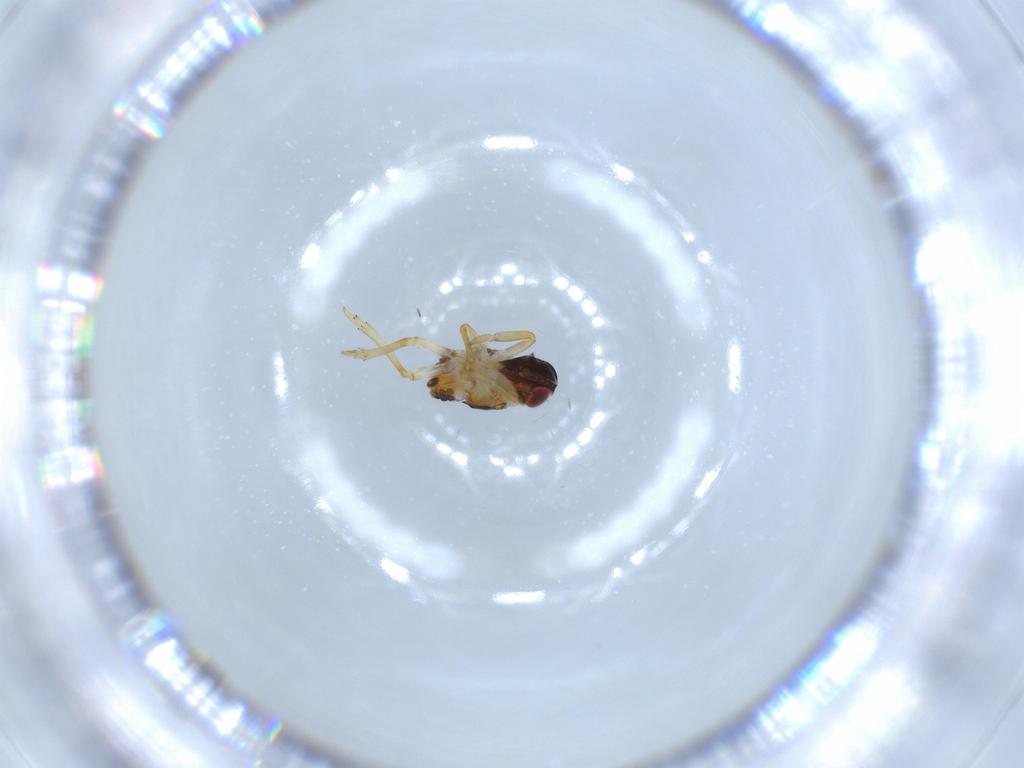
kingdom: Animalia
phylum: Arthropoda
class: Insecta
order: Hemiptera
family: Issidae
